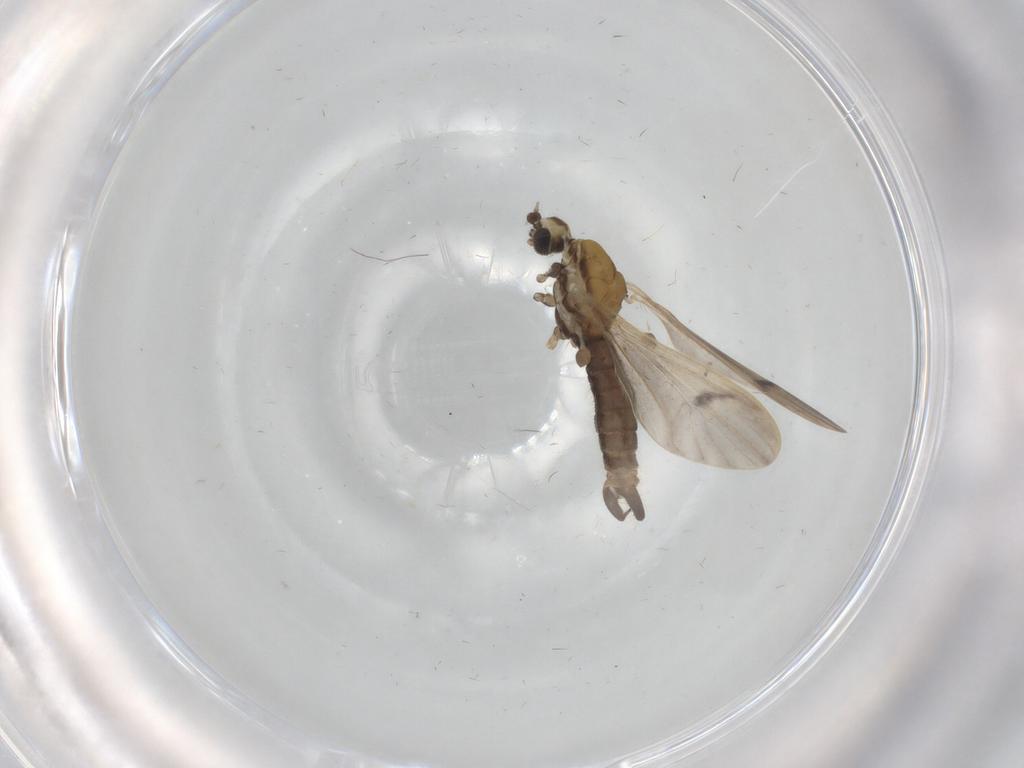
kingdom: Animalia
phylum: Arthropoda
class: Insecta
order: Diptera
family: Limoniidae
